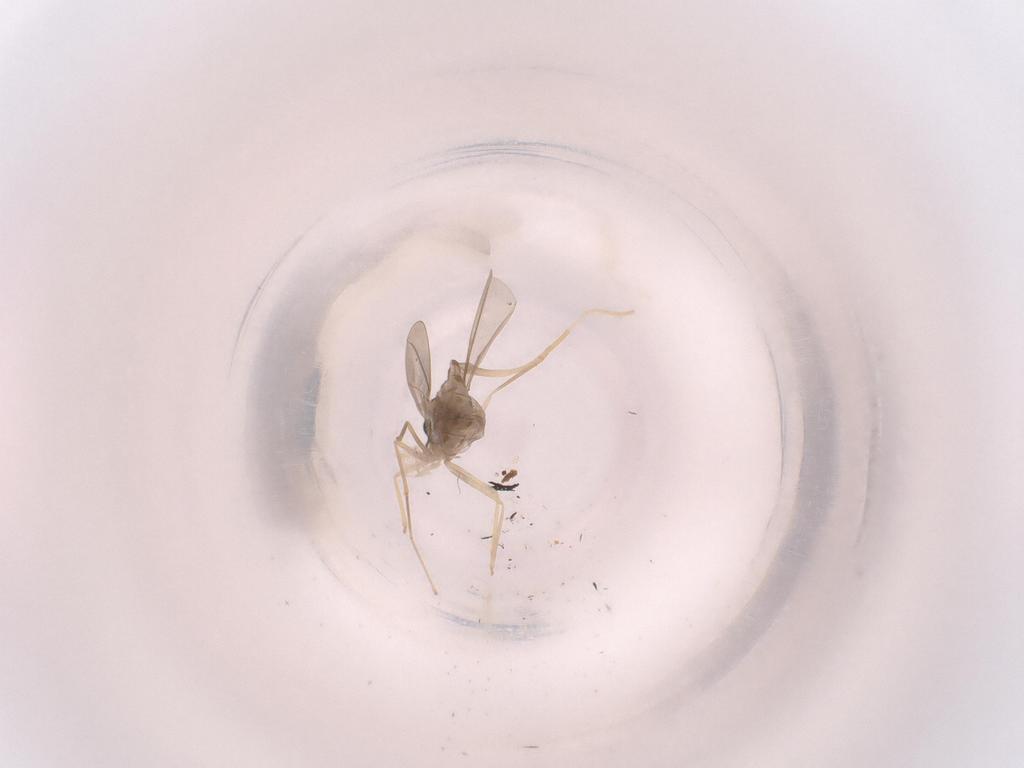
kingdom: Animalia
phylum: Arthropoda
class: Insecta
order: Diptera
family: Cecidomyiidae
